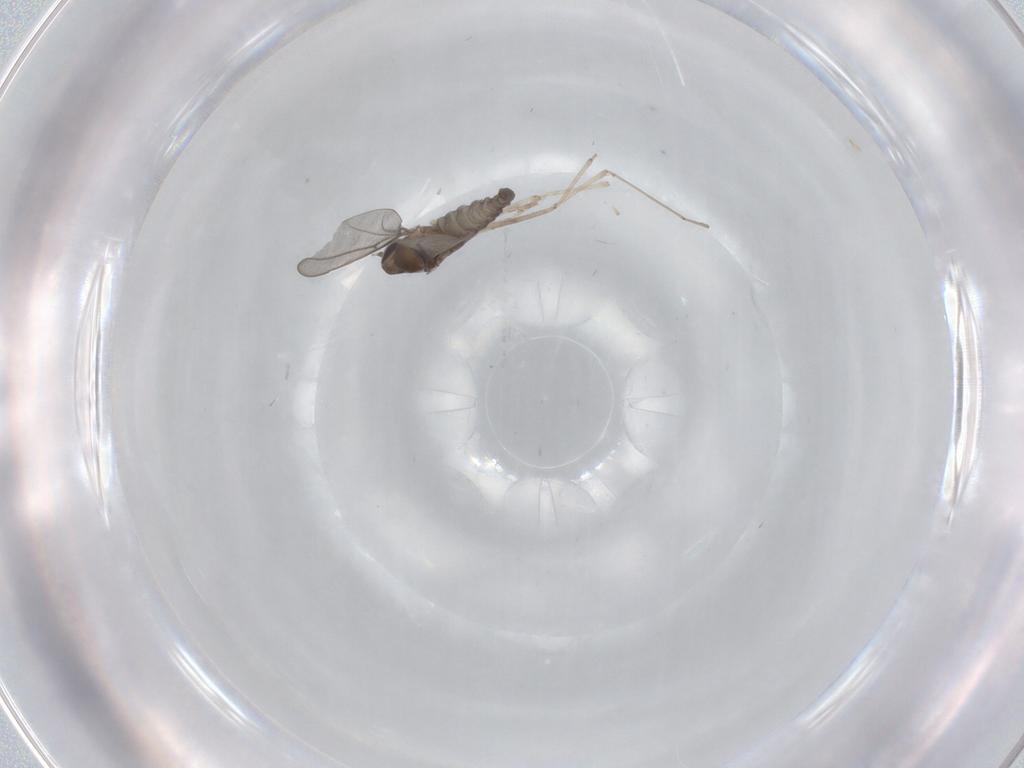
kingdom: Animalia
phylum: Arthropoda
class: Insecta
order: Diptera
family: Cecidomyiidae
